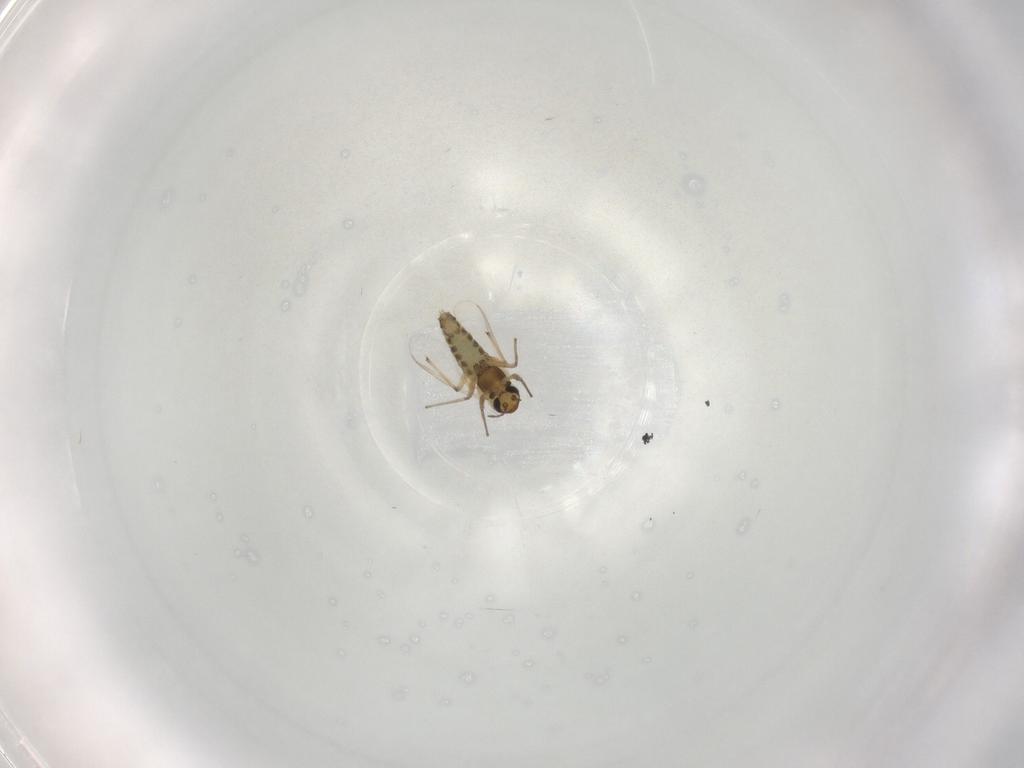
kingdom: Animalia
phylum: Arthropoda
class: Insecta
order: Diptera
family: Chironomidae
